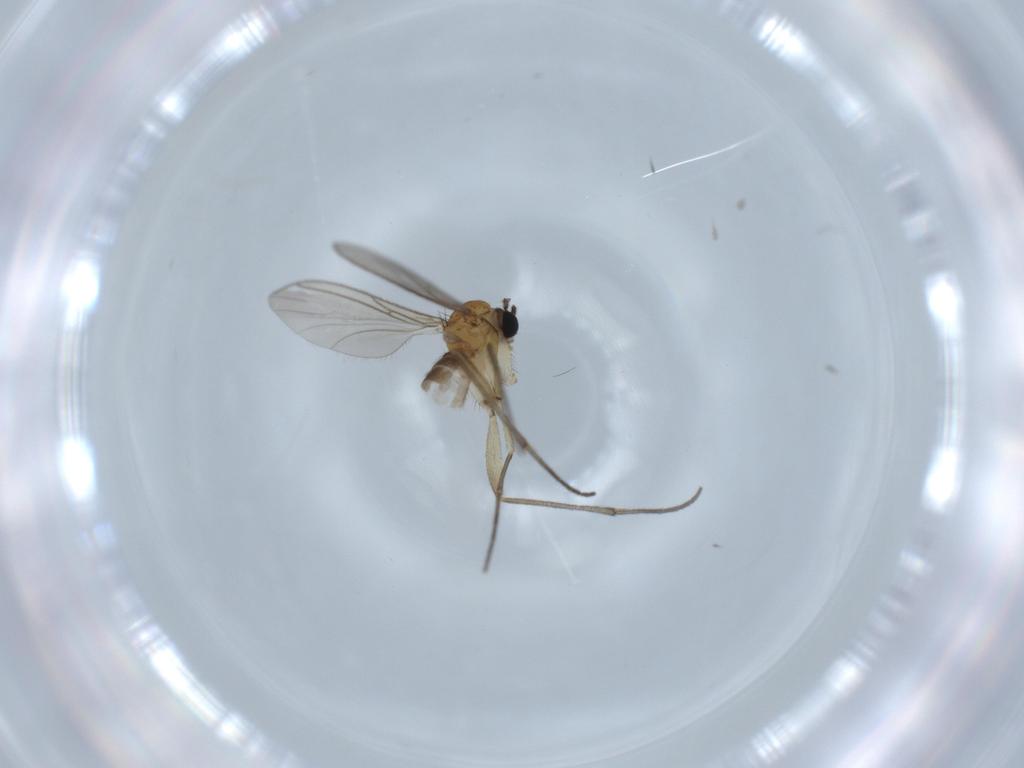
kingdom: Animalia
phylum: Arthropoda
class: Insecta
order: Diptera
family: Sciaridae
